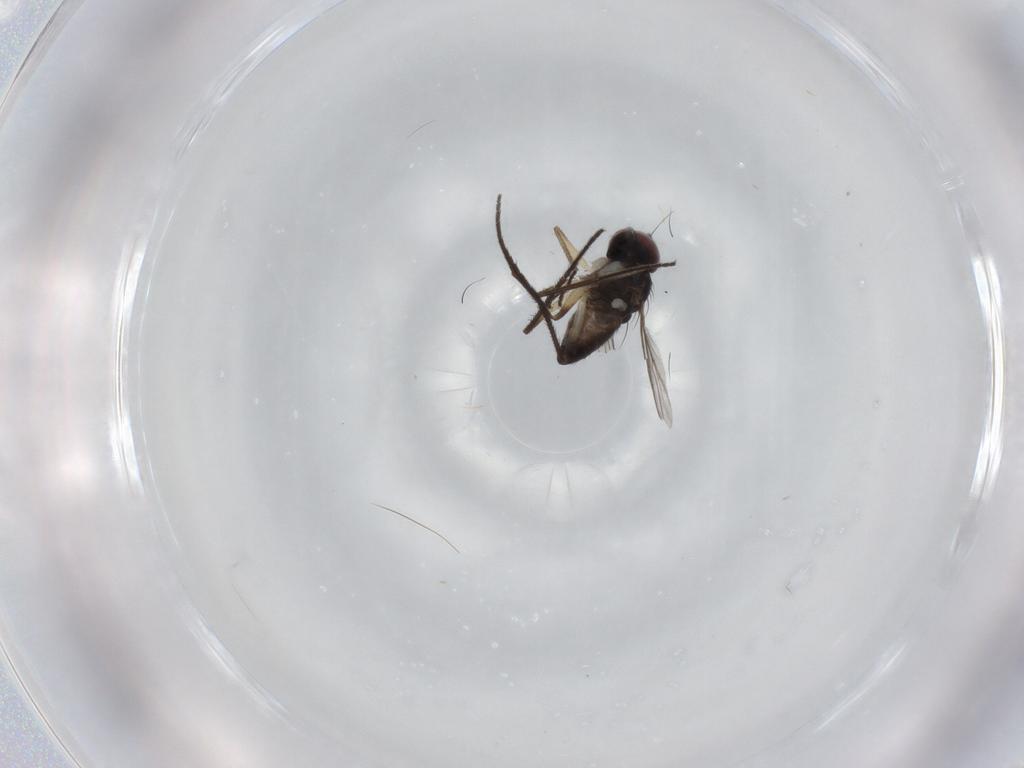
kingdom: Animalia
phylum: Arthropoda
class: Insecta
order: Diptera
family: Dolichopodidae
